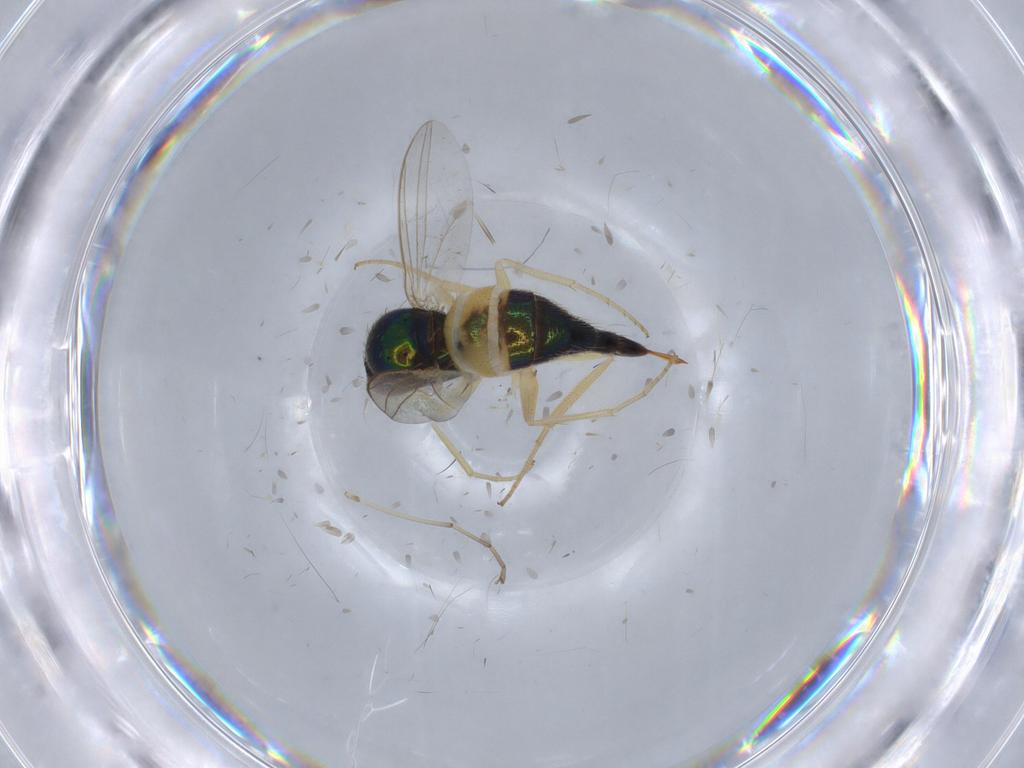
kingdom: Animalia
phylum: Arthropoda
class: Insecta
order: Diptera
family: Dolichopodidae
